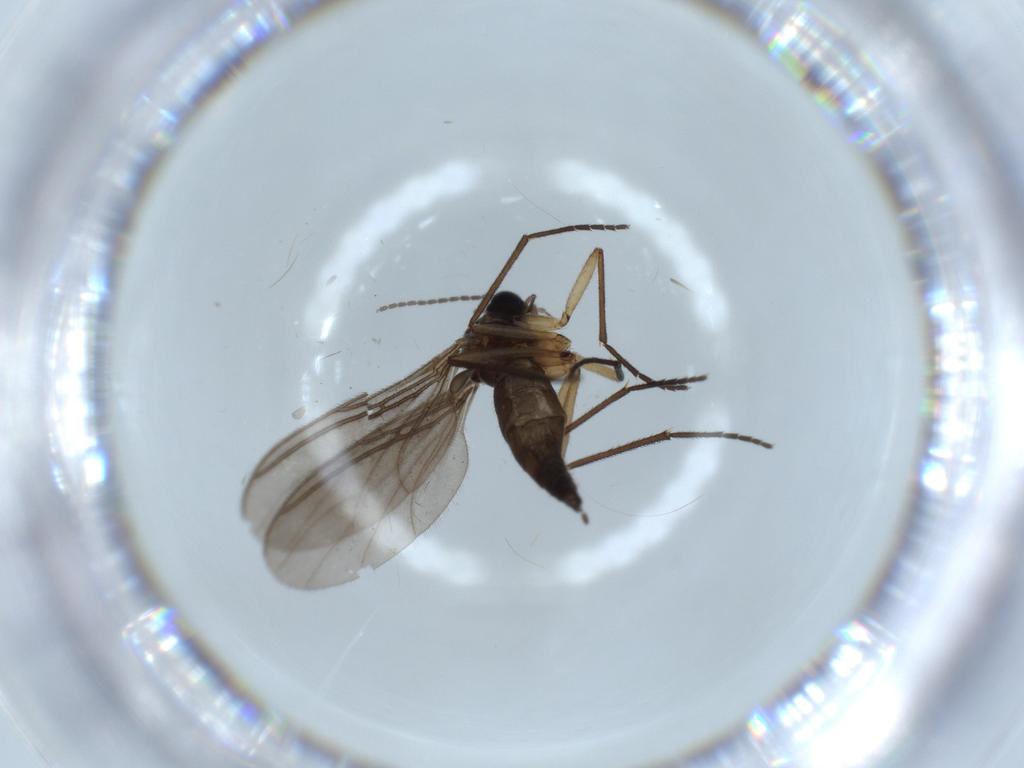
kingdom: Animalia
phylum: Arthropoda
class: Insecta
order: Diptera
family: Sciaridae
